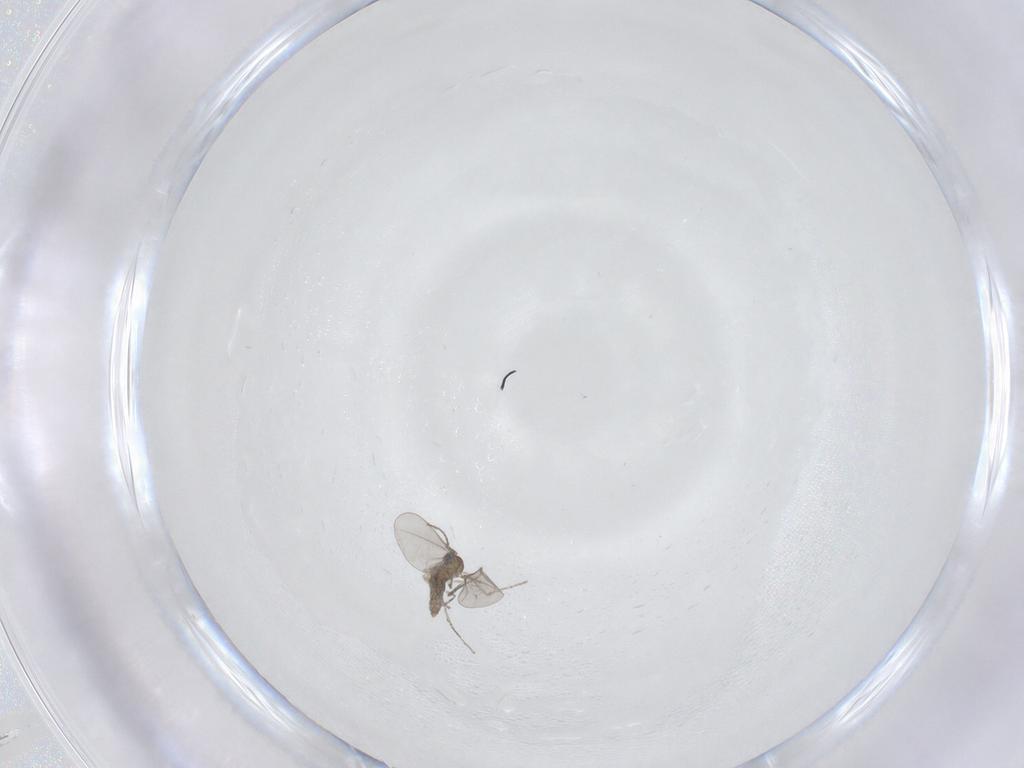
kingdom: Animalia
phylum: Arthropoda
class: Insecta
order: Diptera
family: Cecidomyiidae
